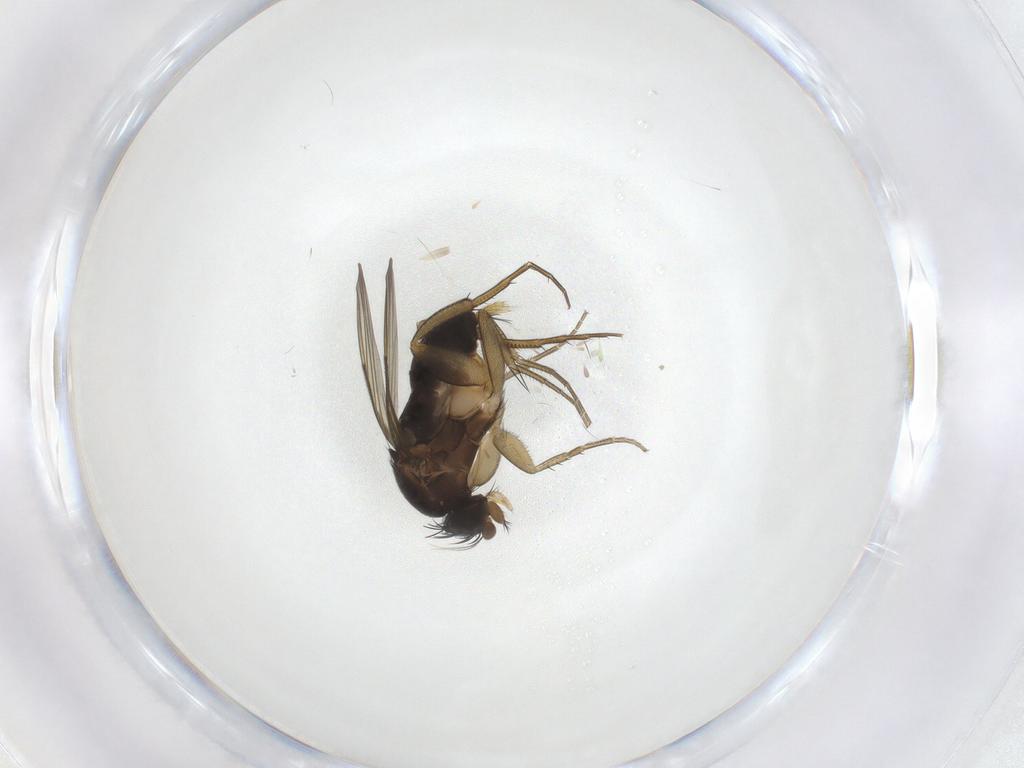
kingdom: Animalia
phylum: Arthropoda
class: Insecta
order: Diptera
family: Phoridae
